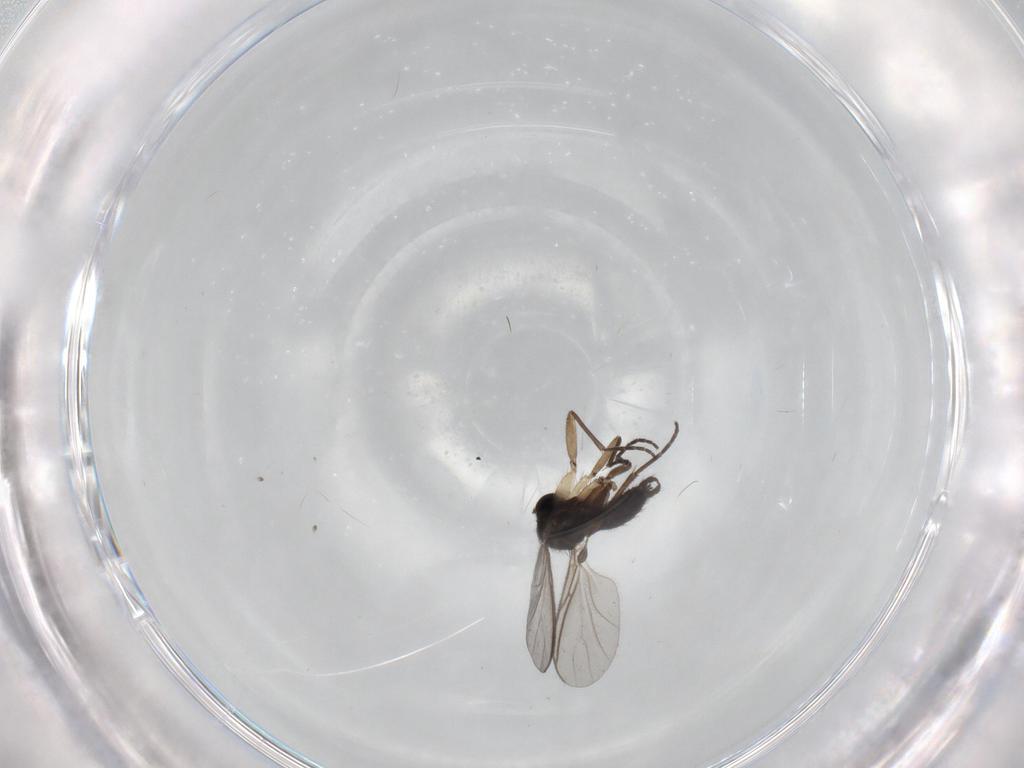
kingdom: Animalia
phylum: Arthropoda
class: Insecta
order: Diptera
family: Sciaridae
